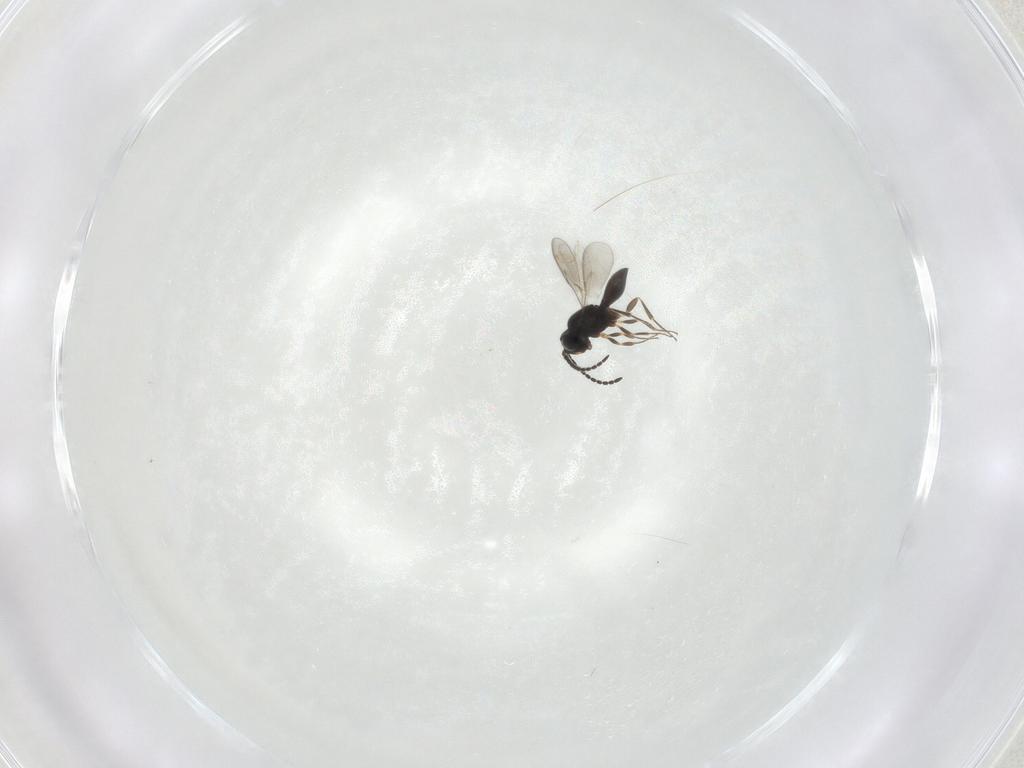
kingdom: Animalia
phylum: Arthropoda
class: Insecta
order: Hymenoptera
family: Scelionidae
